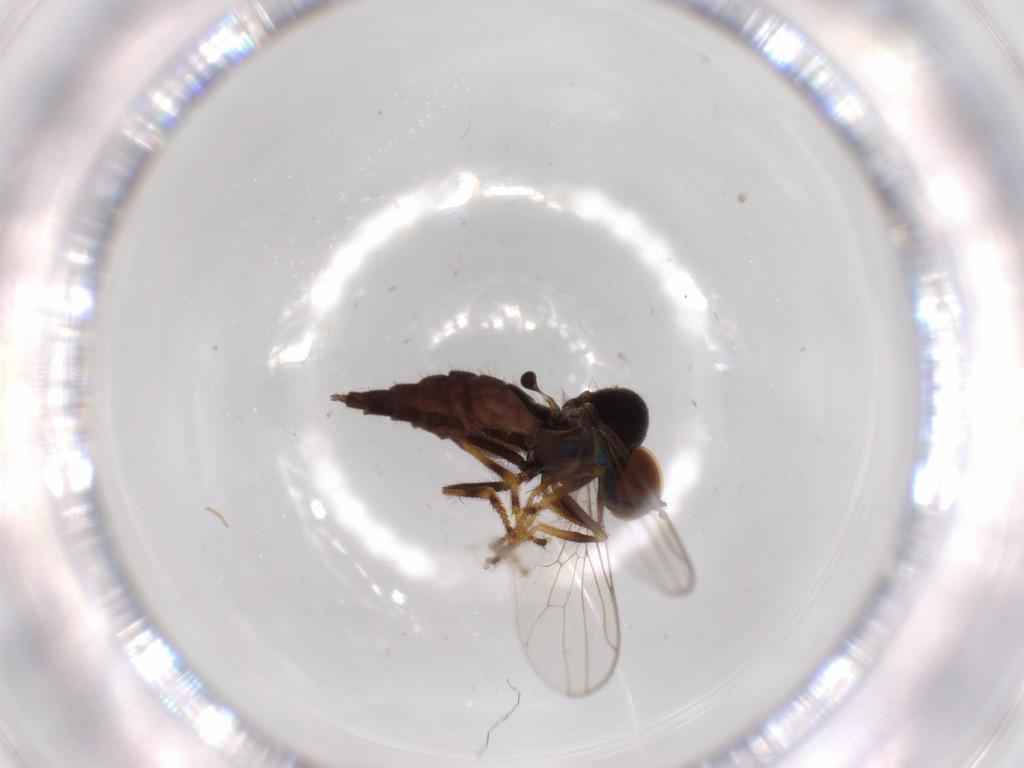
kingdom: Animalia
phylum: Arthropoda
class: Insecta
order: Diptera
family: Hybotidae
